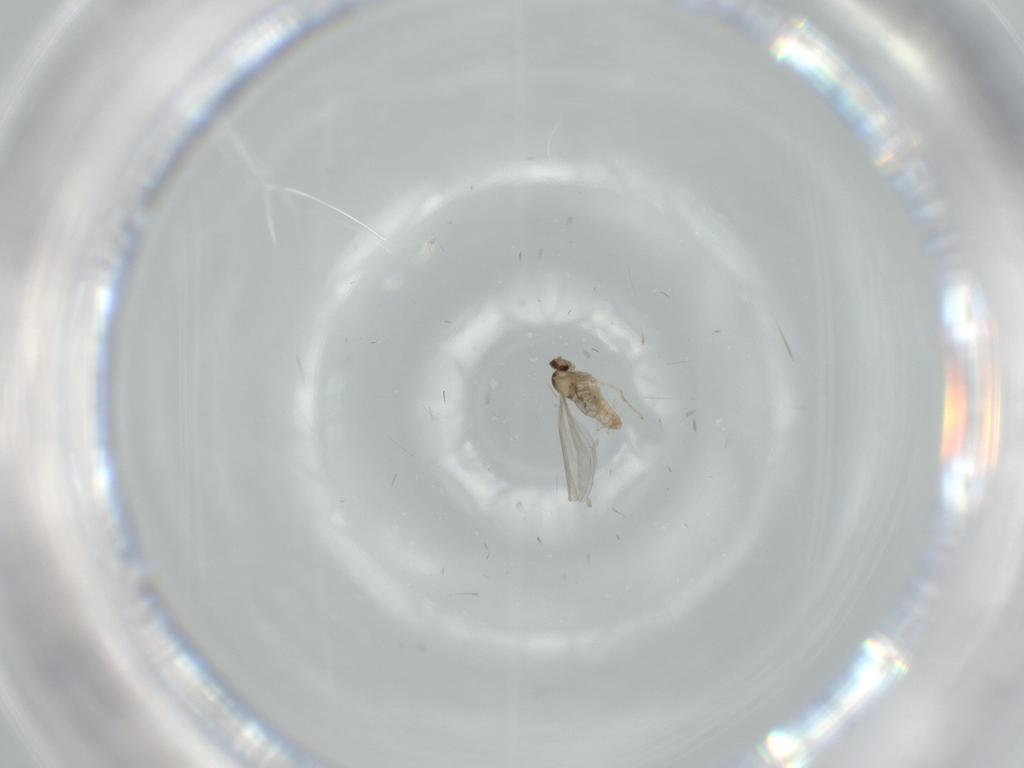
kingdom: Animalia
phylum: Arthropoda
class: Insecta
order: Diptera
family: Cecidomyiidae
